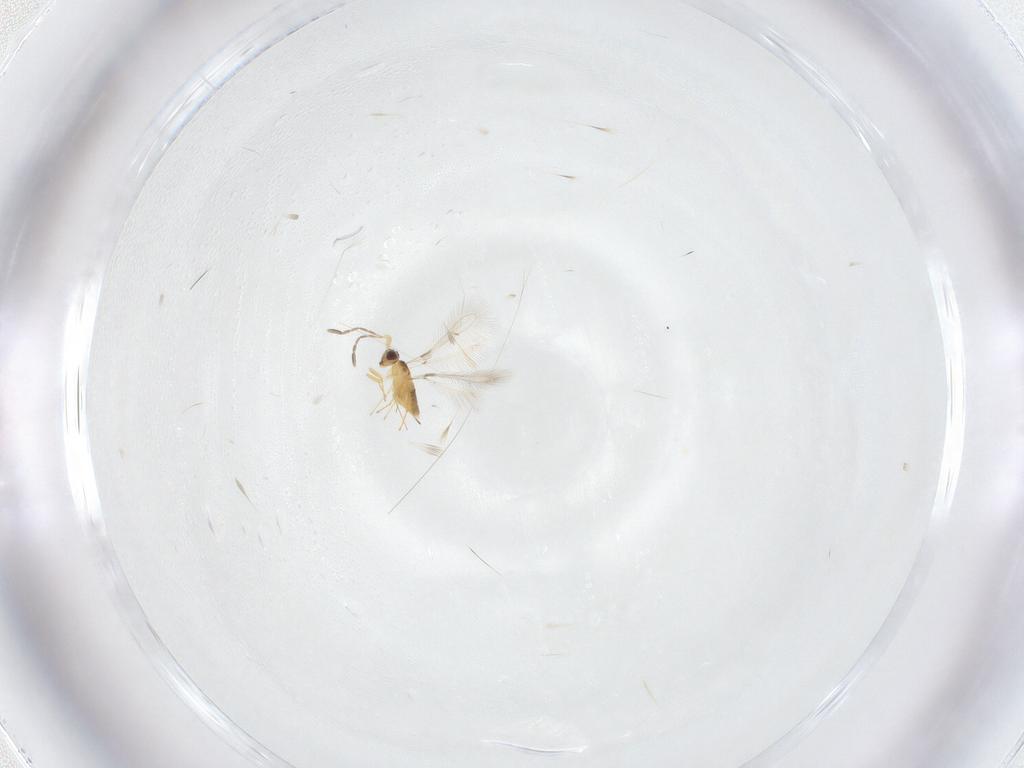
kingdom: Animalia
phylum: Arthropoda
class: Insecta
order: Hymenoptera
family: Mymaridae
